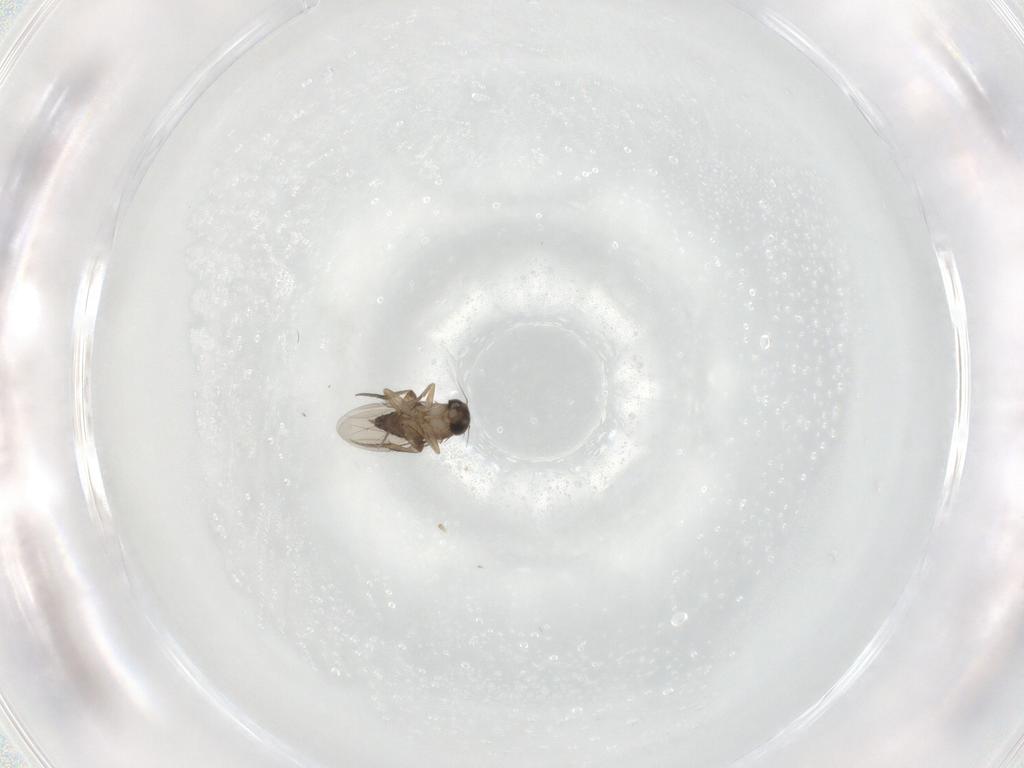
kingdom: Animalia
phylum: Arthropoda
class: Insecta
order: Diptera
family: Phoridae
